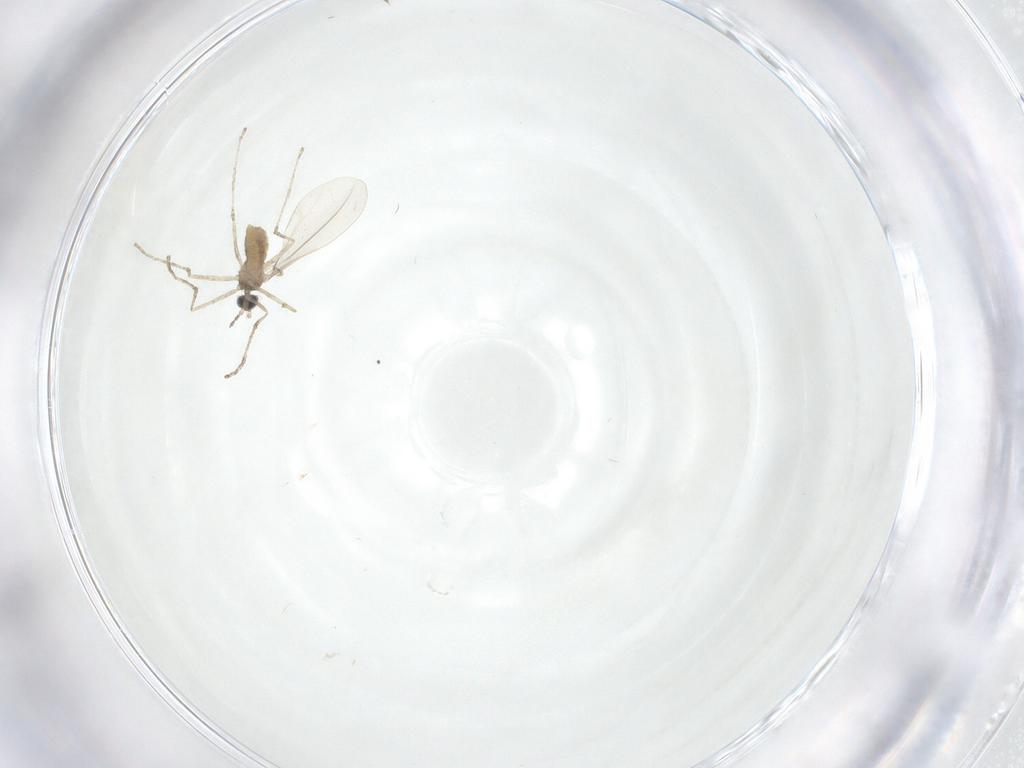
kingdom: Animalia
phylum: Arthropoda
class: Insecta
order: Diptera
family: Cecidomyiidae
